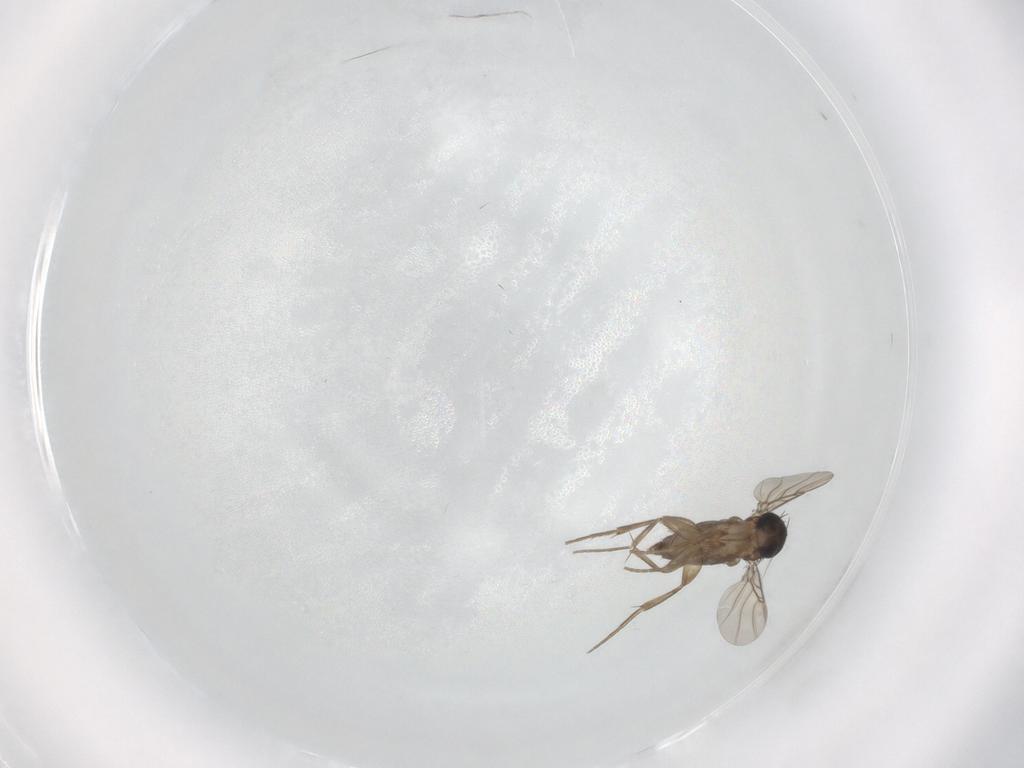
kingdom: Animalia
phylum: Arthropoda
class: Insecta
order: Diptera
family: Phoridae
